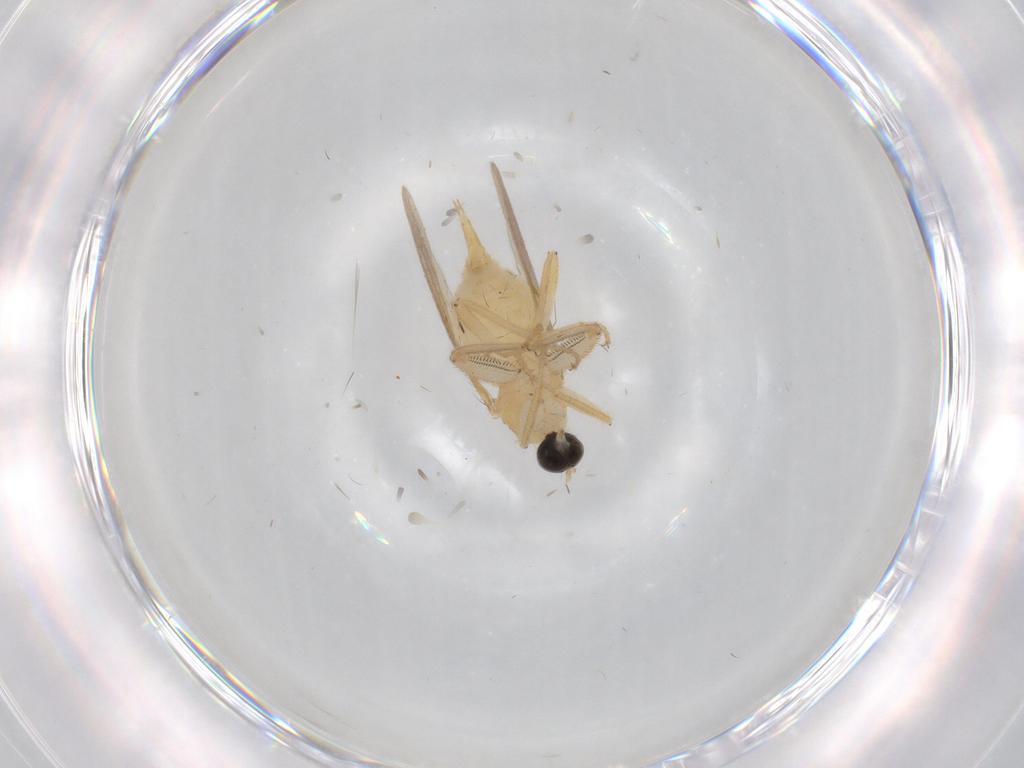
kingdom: Animalia
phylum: Arthropoda
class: Insecta
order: Diptera
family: Hybotidae
